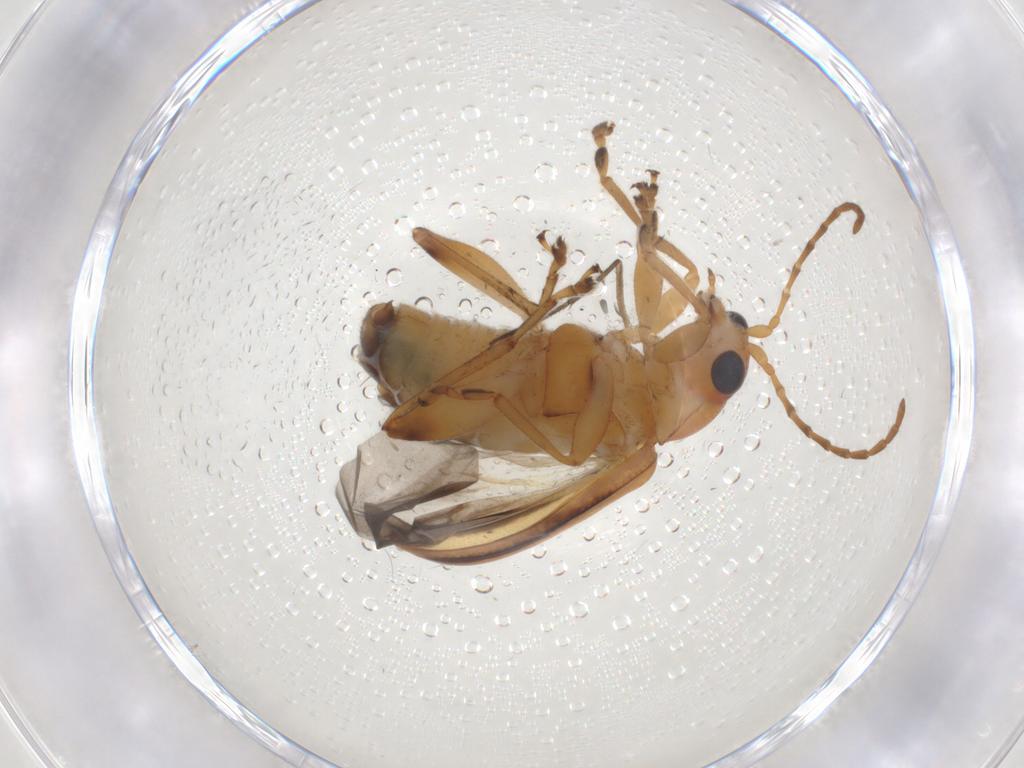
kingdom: Animalia
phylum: Arthropoda
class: Insecta
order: Coleoptera
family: Chrysomelidae
